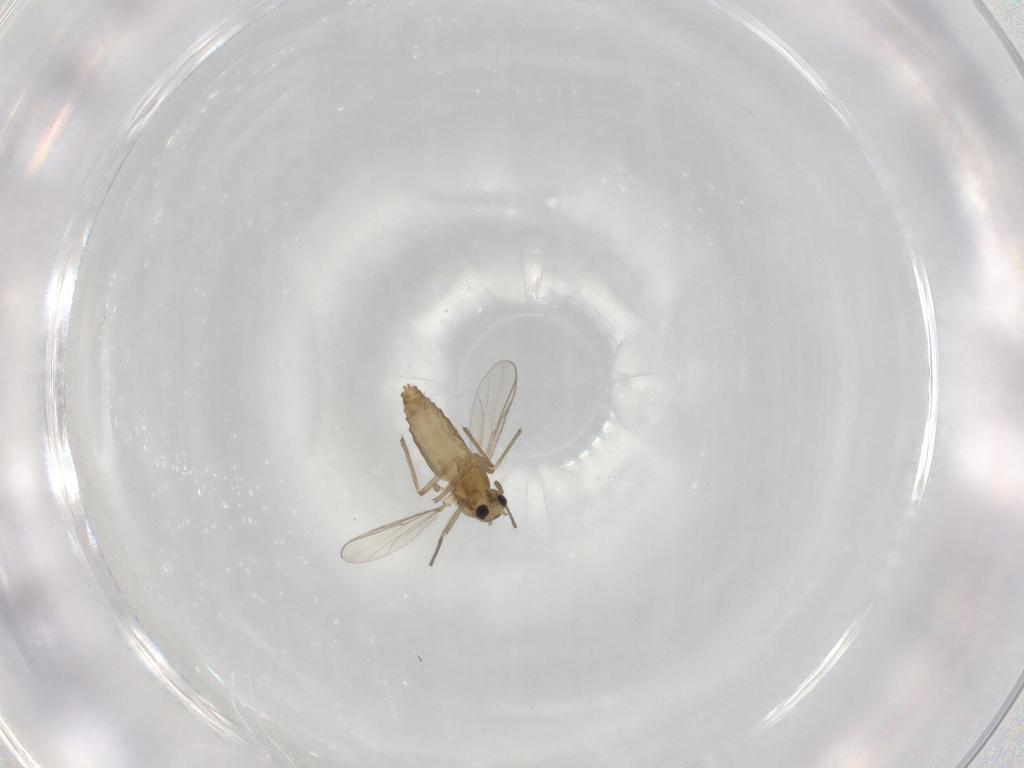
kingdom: Animalia
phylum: Arthropoda
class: Insecta
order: Diptera
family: Chironomidae
